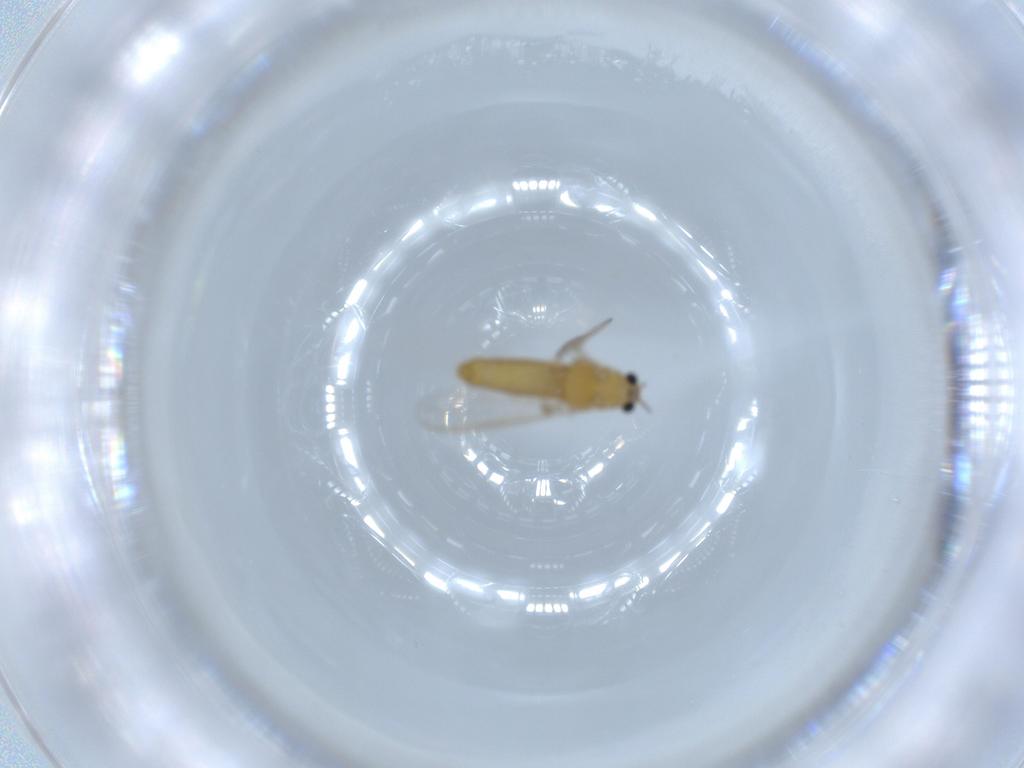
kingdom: Animalia
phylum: Arthropoda
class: Insecta
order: Diptera
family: Chironomidae
